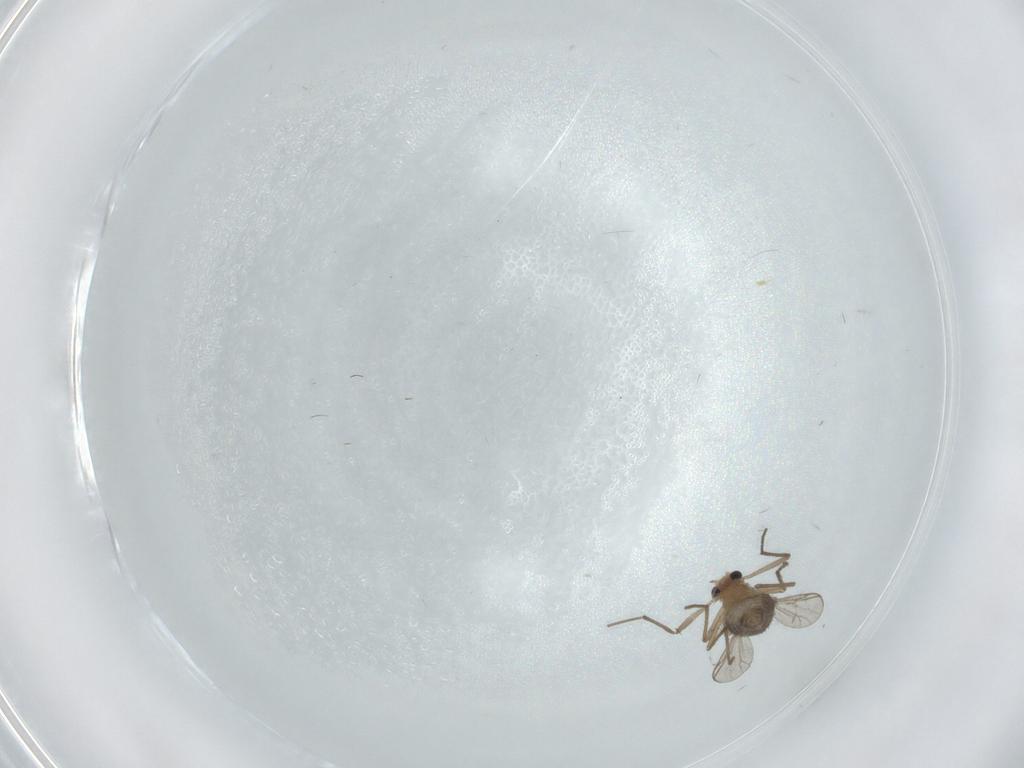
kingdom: Animalia
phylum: Arthropoda
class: Insecta
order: Diptera
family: Chironomidae
